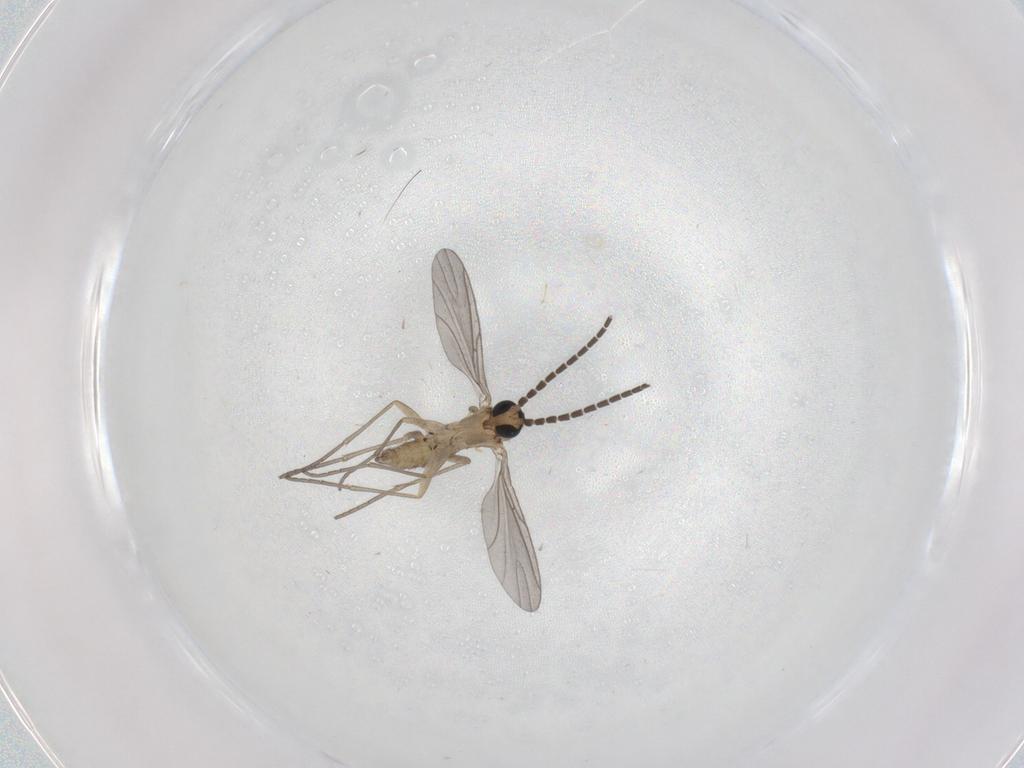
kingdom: Animalia
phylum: Arthropoda
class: Insecta
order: Diptera
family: Sciaridae
